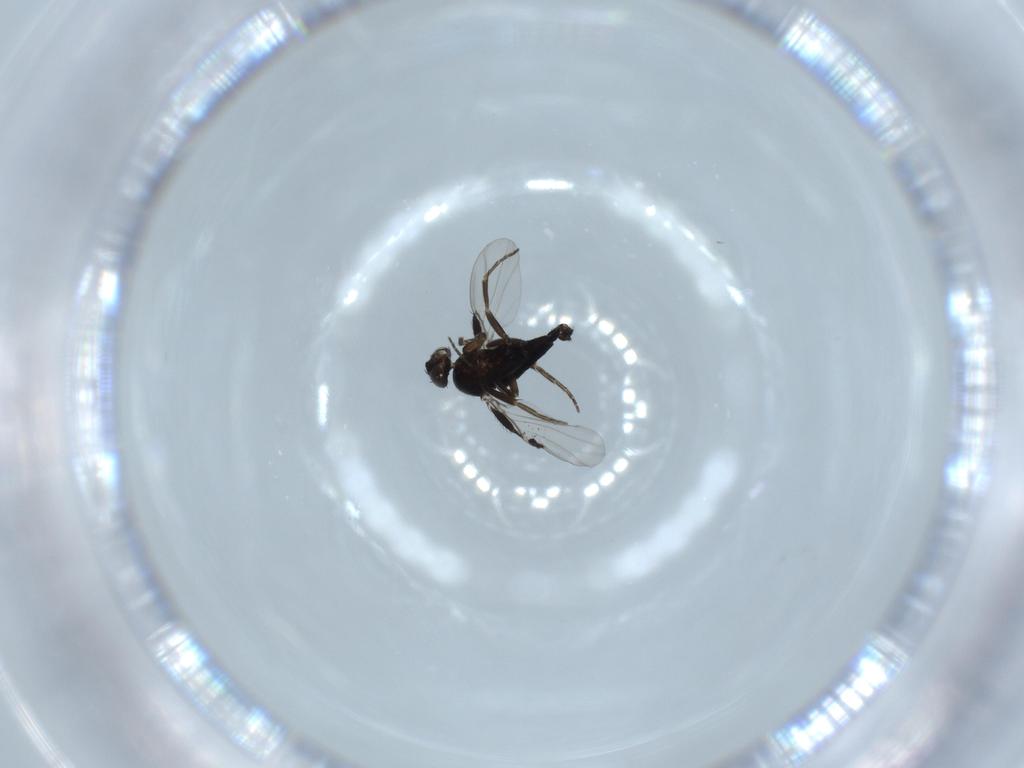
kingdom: Animalia
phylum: Arthropoda
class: Insecta
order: Diptera
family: Phoridae
